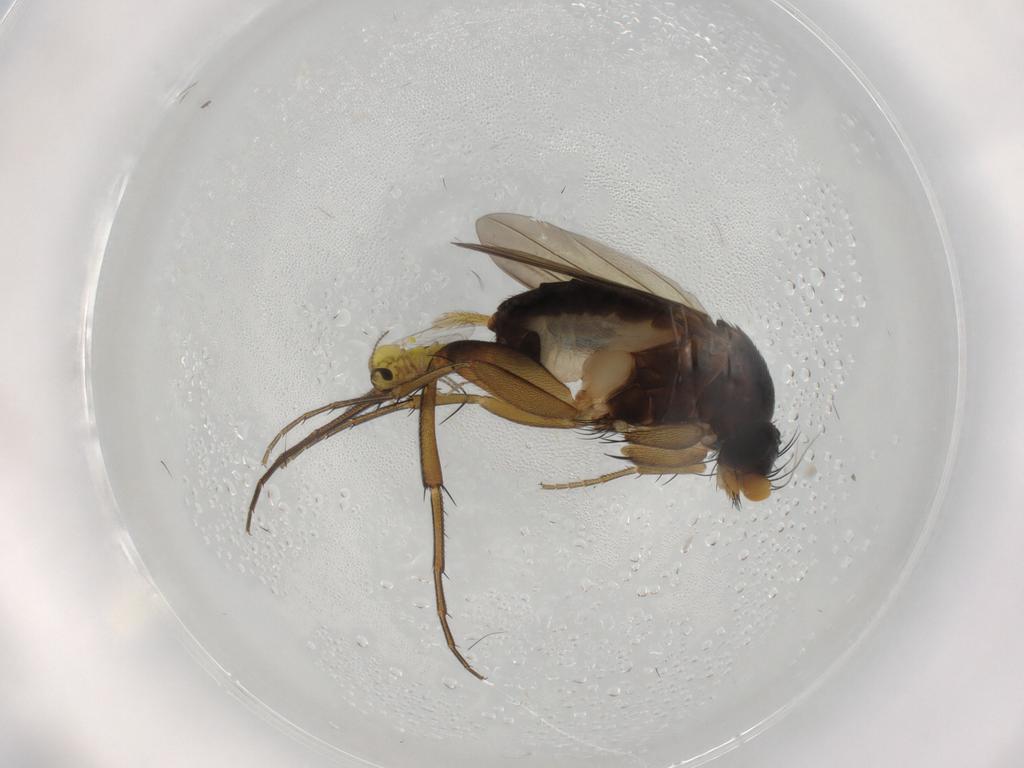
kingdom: Animalia
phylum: Arthropoda
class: Insecta
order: Diptera
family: Phoridae
